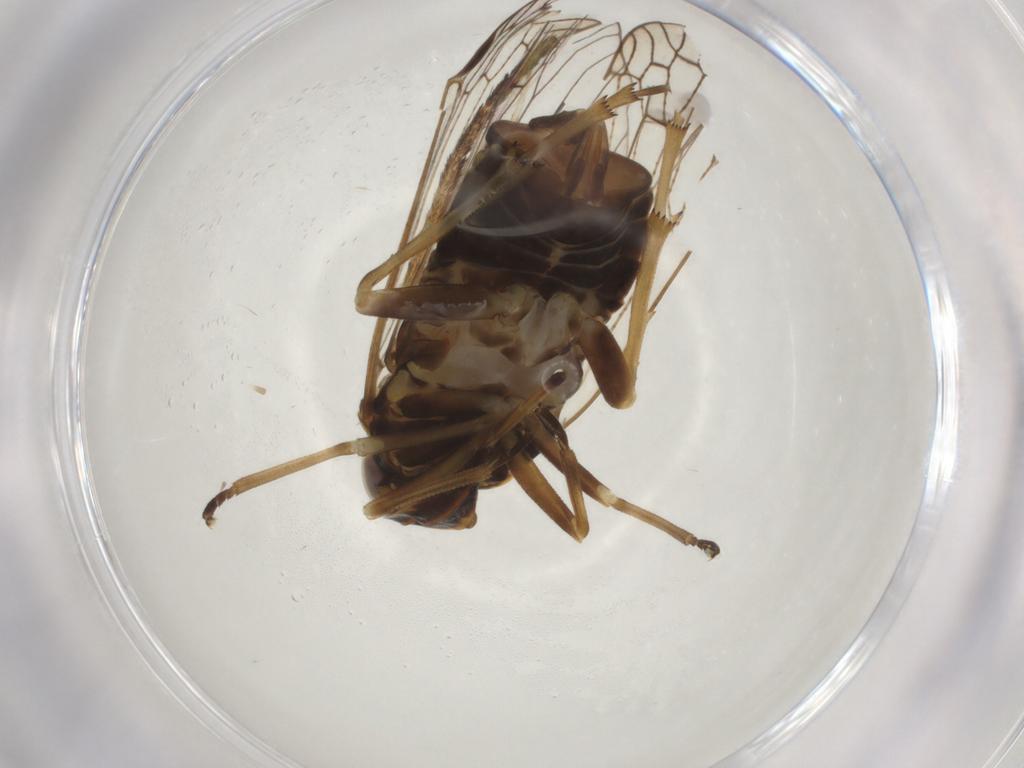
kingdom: Animalia
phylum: Arthropoda
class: Insecta
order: Hemiptera
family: Cixiidae
